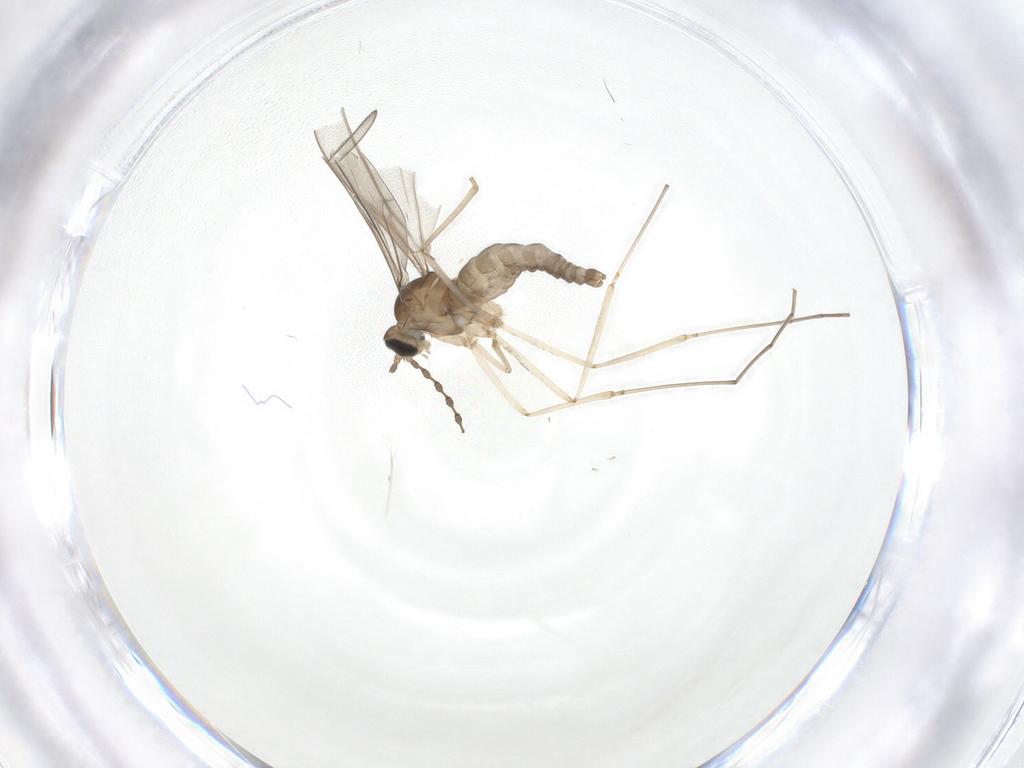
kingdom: Animalia
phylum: Arthropoda
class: Insecta
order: Diptera
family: Cecidomyiidae
